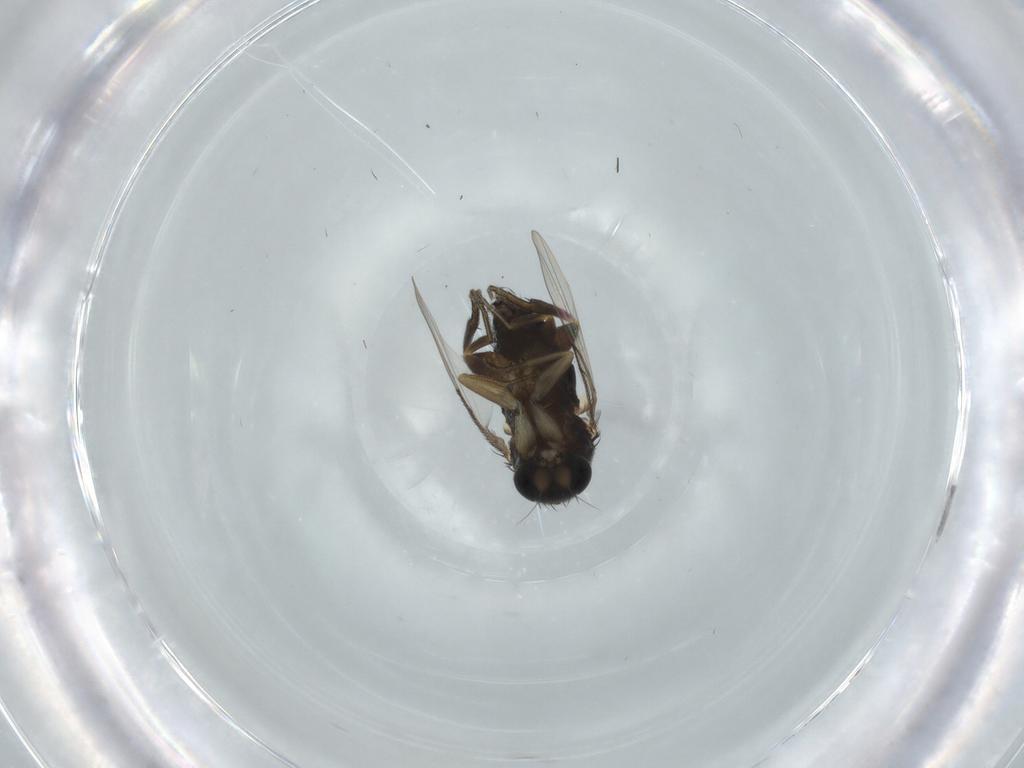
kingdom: Animalia
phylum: Arthropoda
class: Insecta
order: Diptera
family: Phoridae
